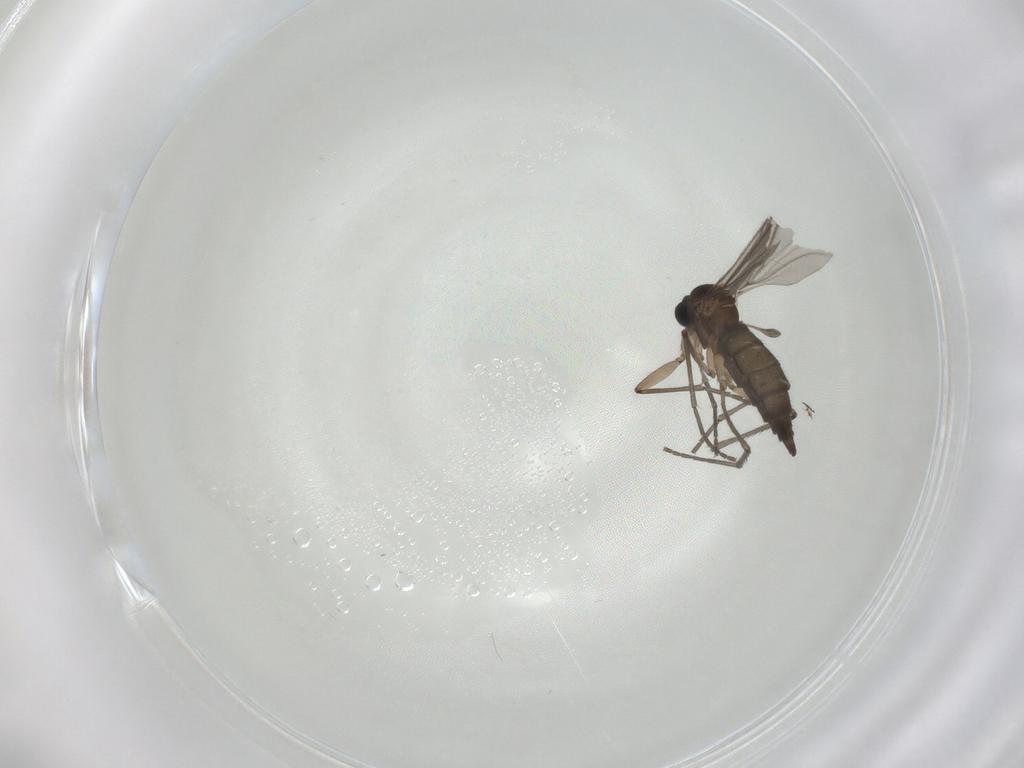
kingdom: Animalia
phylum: Arthropoda
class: Insecta
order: Diptera
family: Sciaridae
